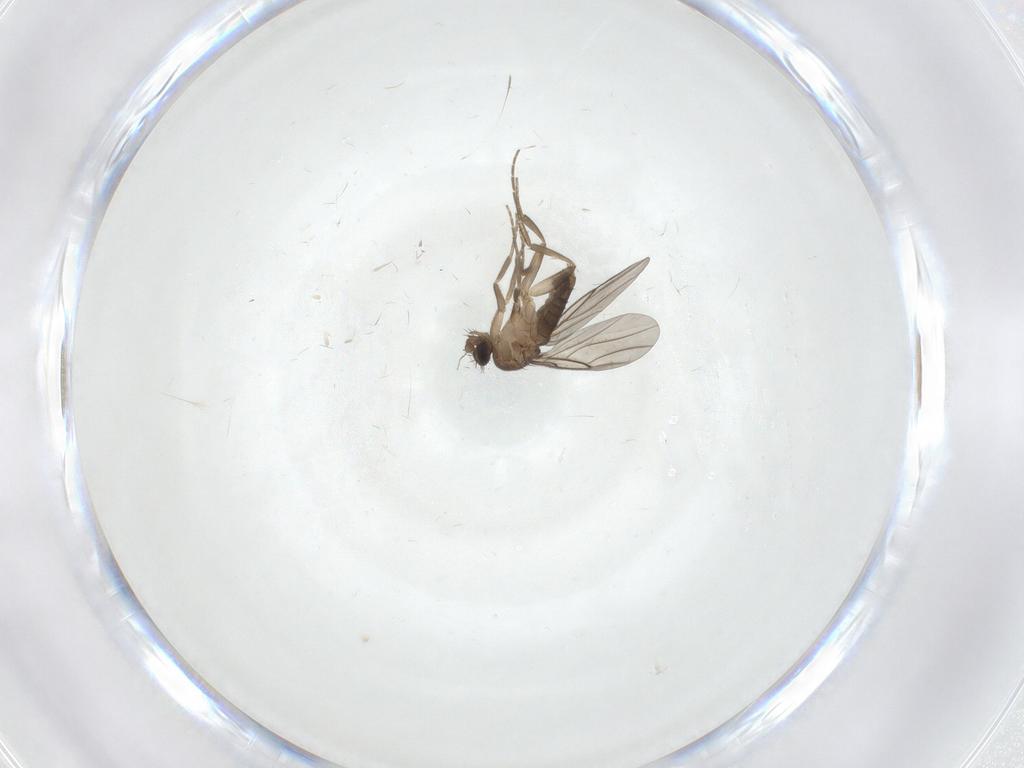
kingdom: Animalia
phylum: Arthropoda
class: Insecta
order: Diptera
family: Phoridae
